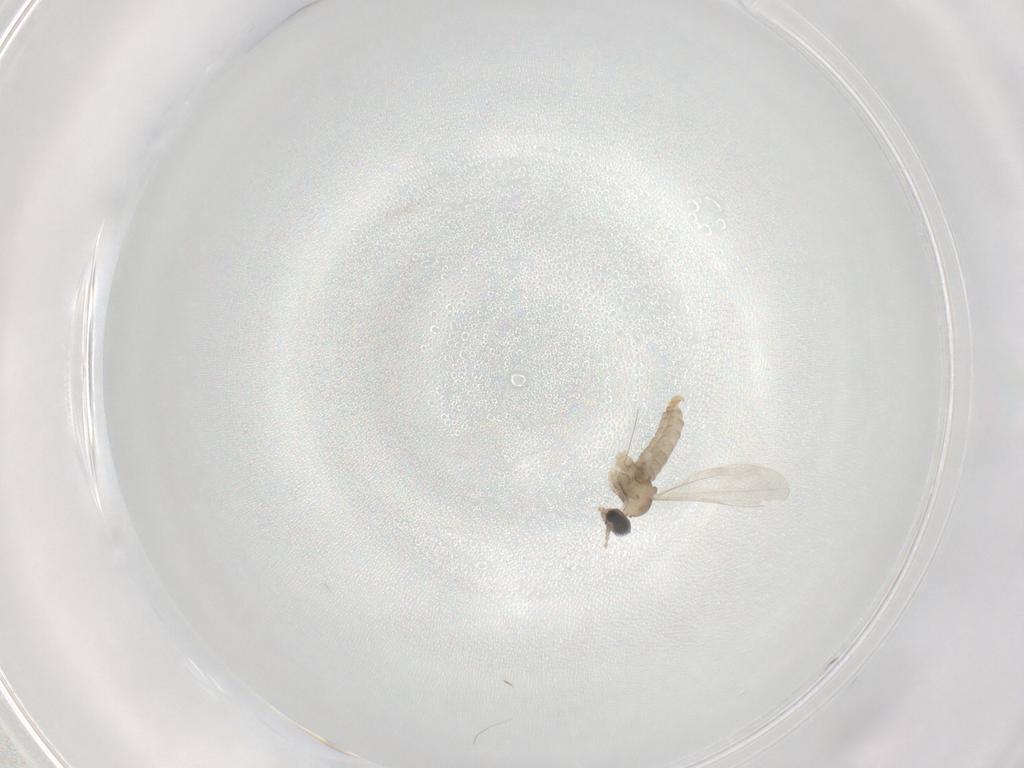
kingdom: Animalia
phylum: Arthropoda
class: Insecta
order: Diptera
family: Cecidomyiidae
